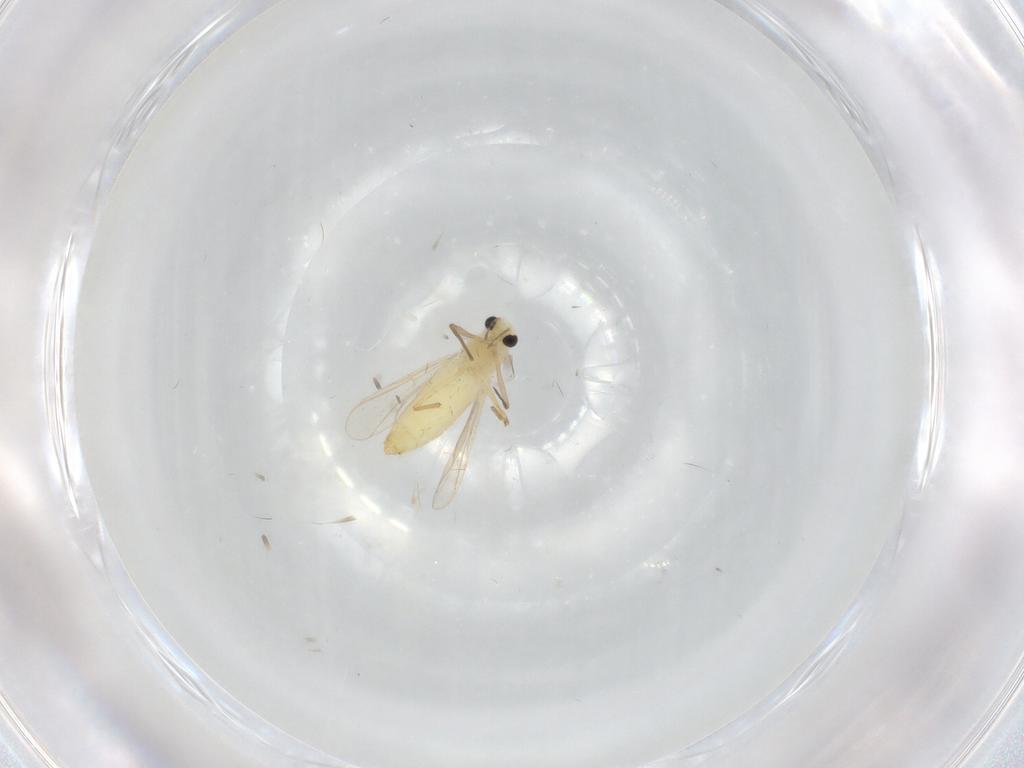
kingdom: Animalia
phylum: Arthropoda
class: Insecta
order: Diptera
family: Chironomidae
